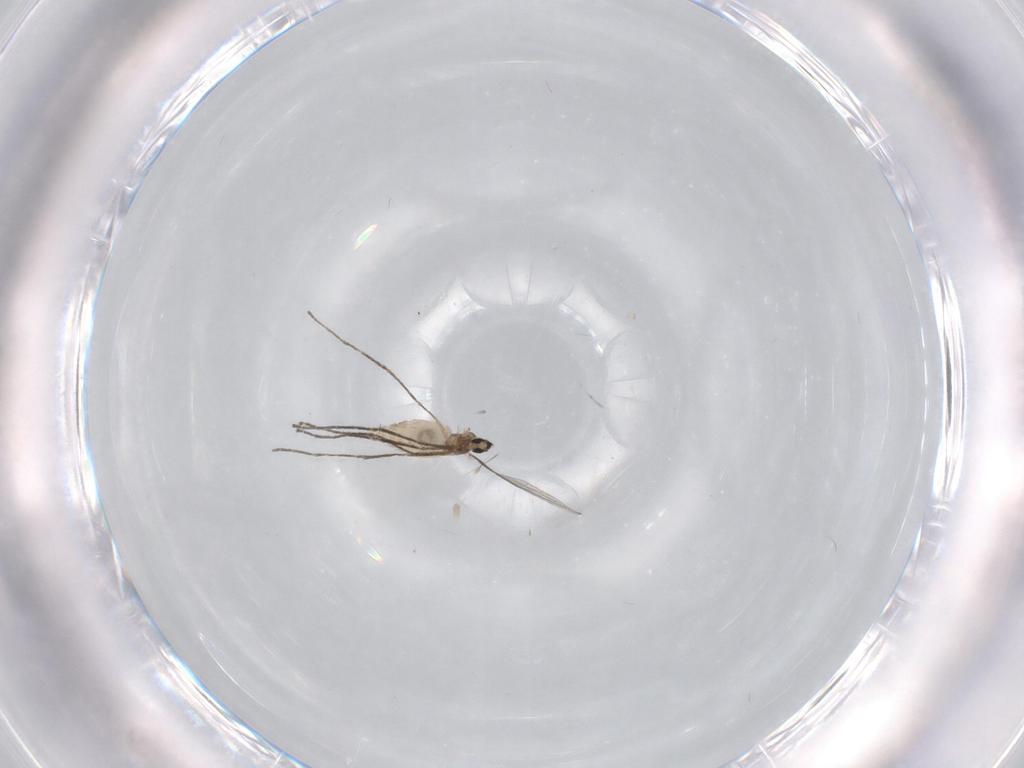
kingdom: Animalia
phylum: Arthropoda
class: Insecta
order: Diptera
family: Cecidomyiidae
